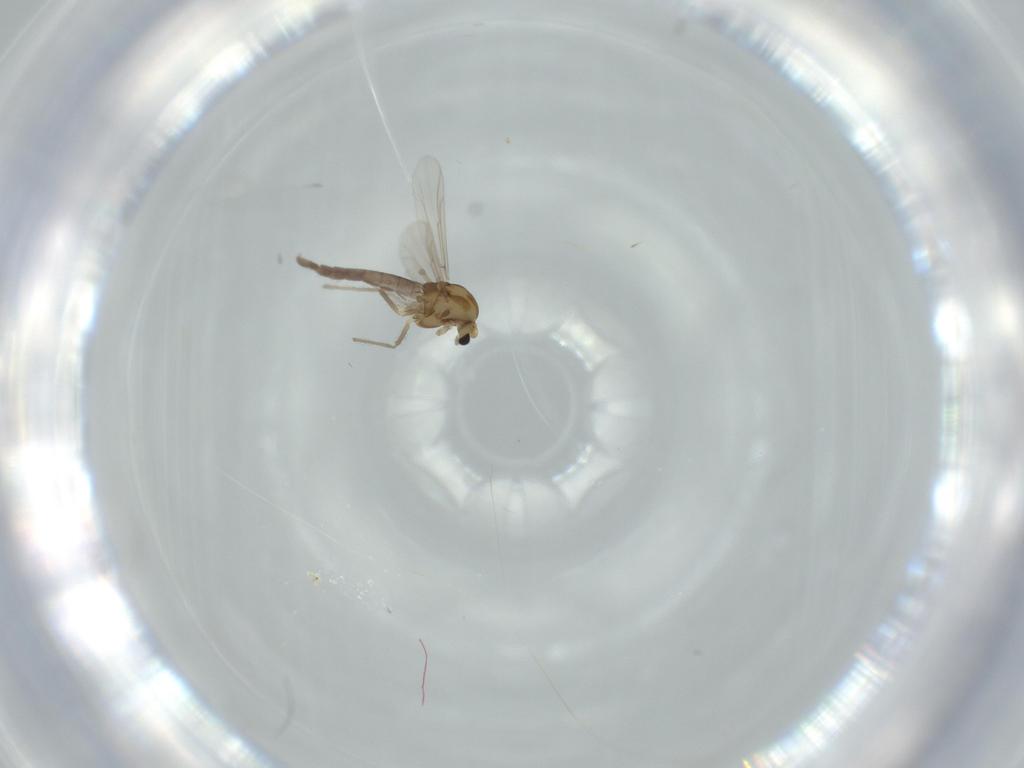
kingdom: Animalia
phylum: Arthropoda
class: Insecta
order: Diptera
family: Chironomidae
